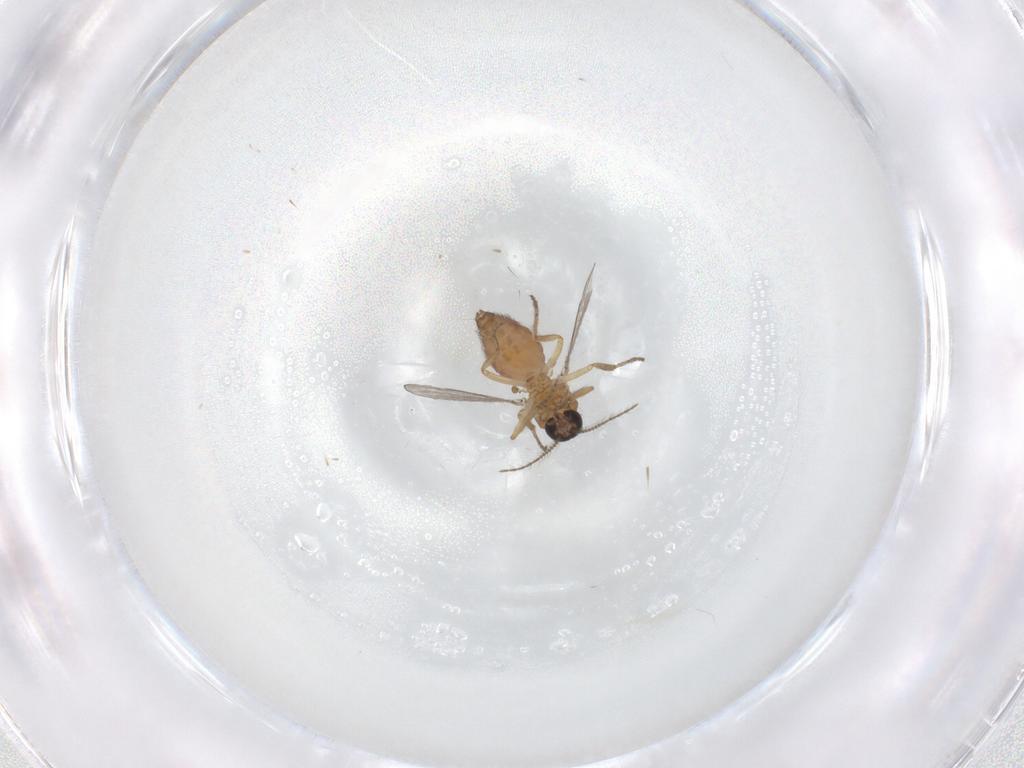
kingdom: Animalia
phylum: Arthropoda
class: Insecta
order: Diptera
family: Ceratopogonidae
